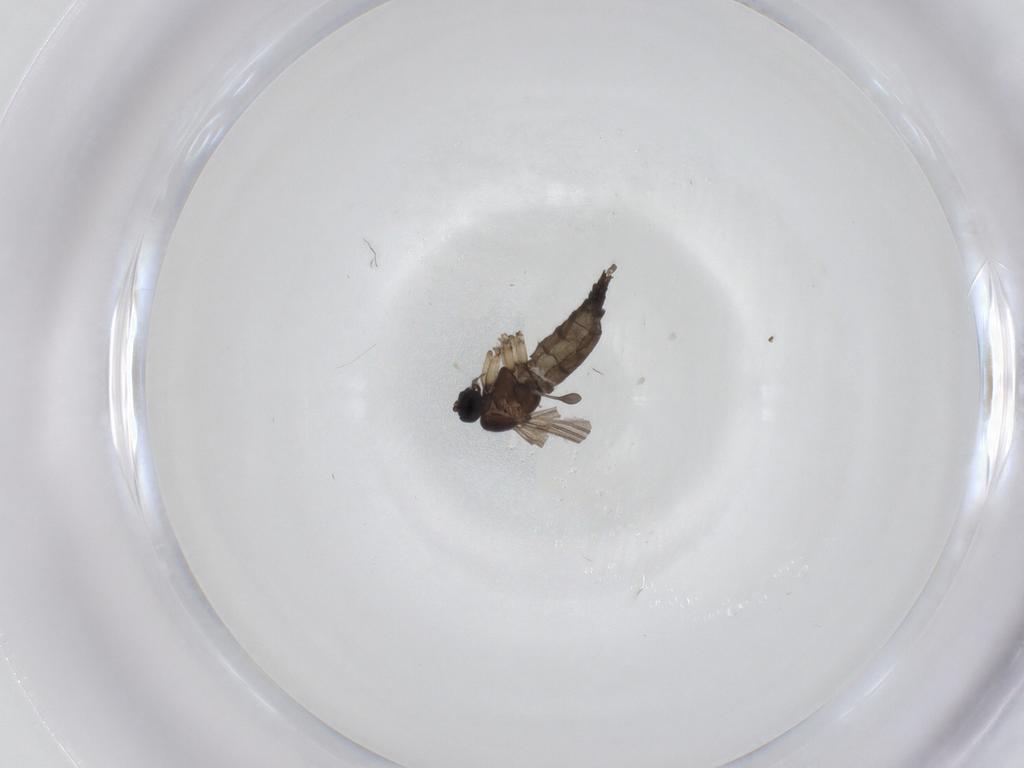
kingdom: Animalia
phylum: Arthropoda
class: Insecta
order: Diptera
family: Sciaridae
